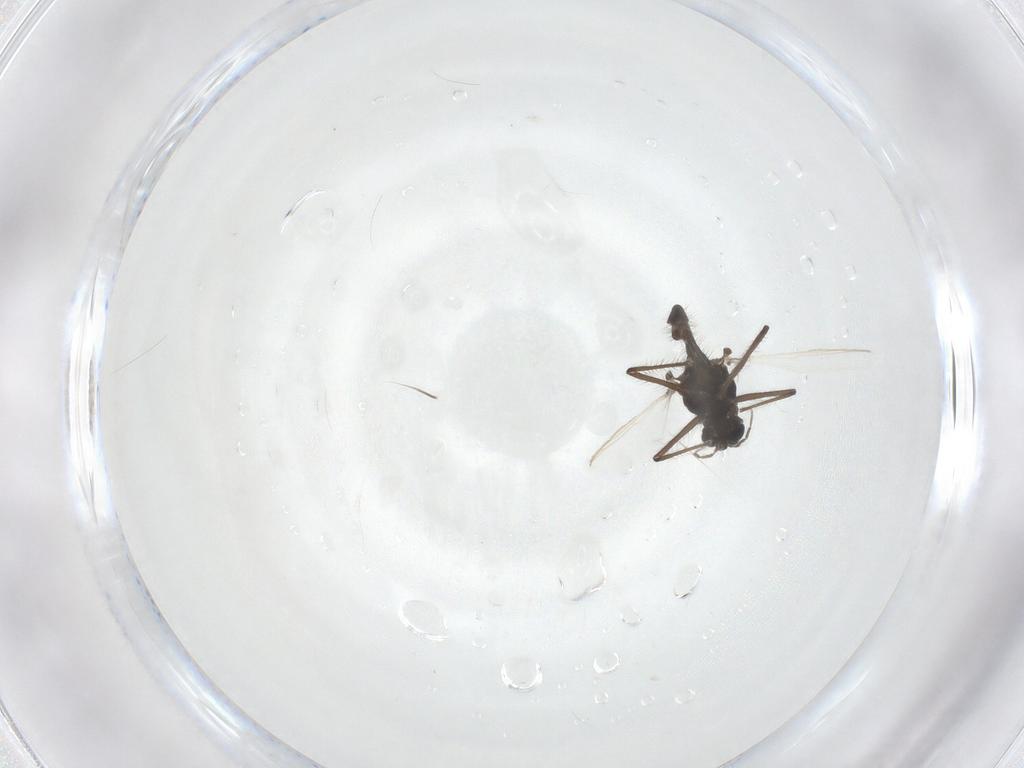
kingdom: Animalia
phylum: Arthropoda
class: Insecta
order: Diptera
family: Chironomidae
